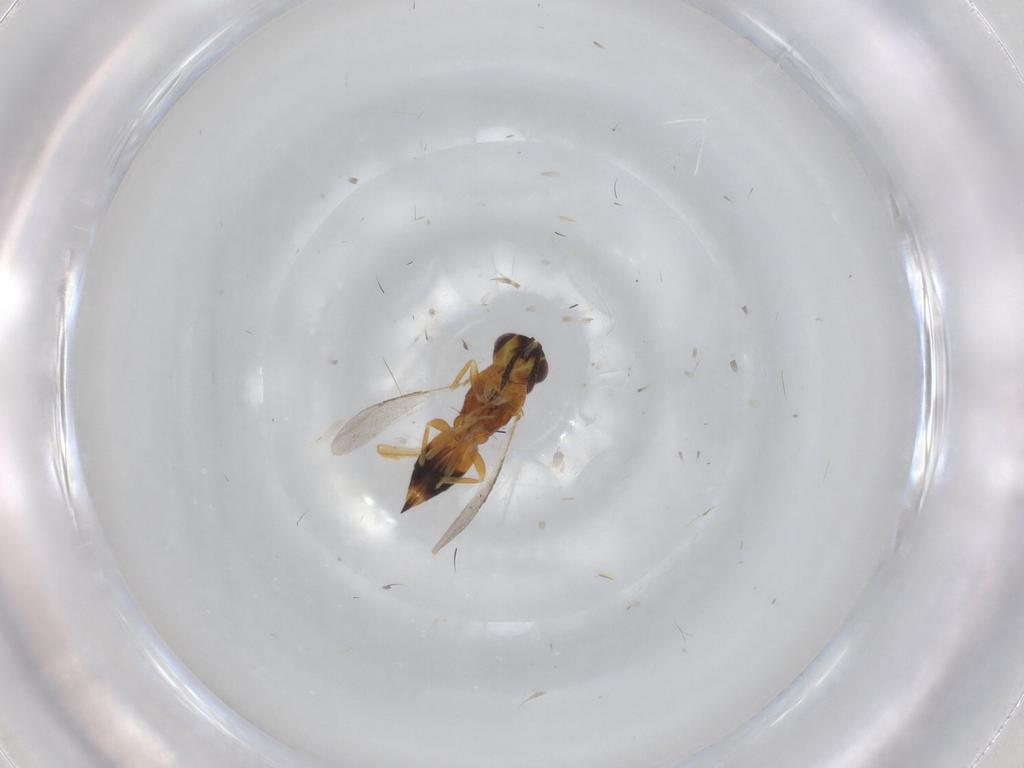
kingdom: Animalia
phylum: Arthropoda
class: Insecta
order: Hymenoptera
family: Eulophidae
